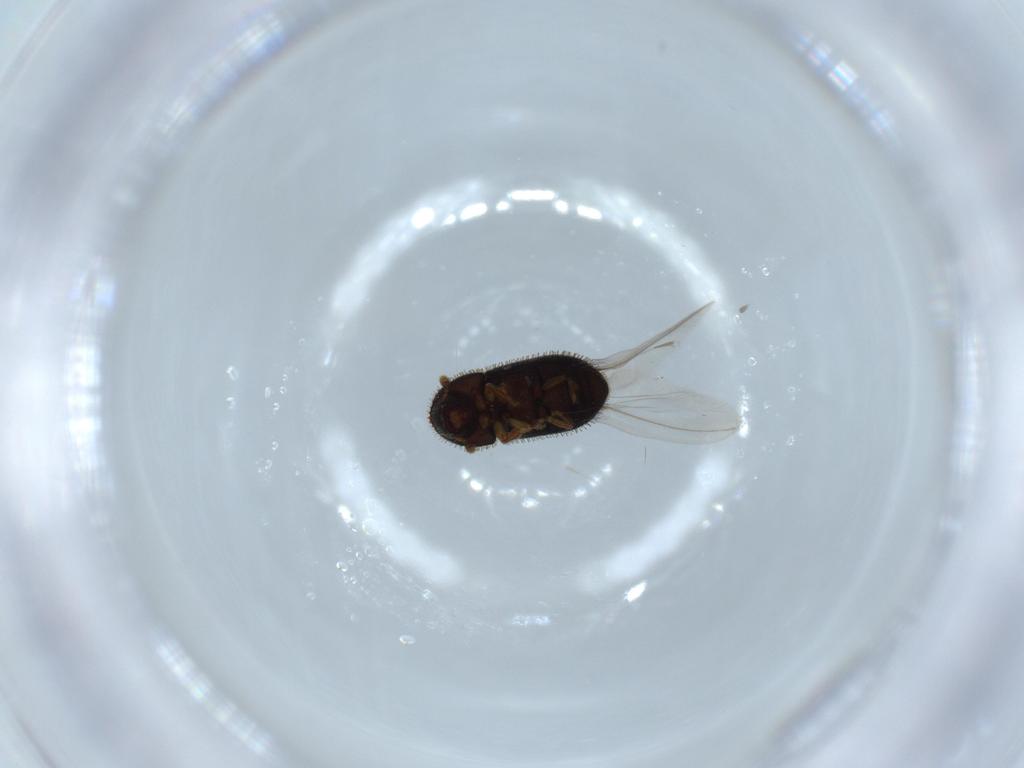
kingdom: Animalia
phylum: Arthropoda
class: Insecta
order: Coleoptera
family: Curculionidae
